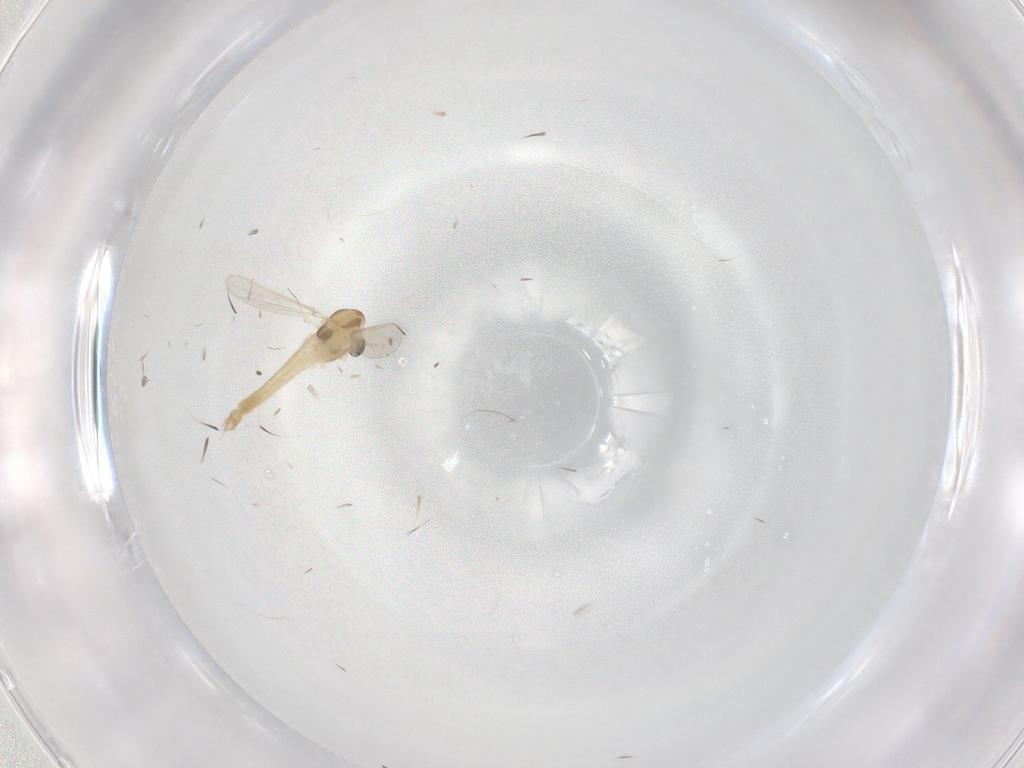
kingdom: Animalia
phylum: Arthropoda
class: Insecta
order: Diptera
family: Chironomidae
